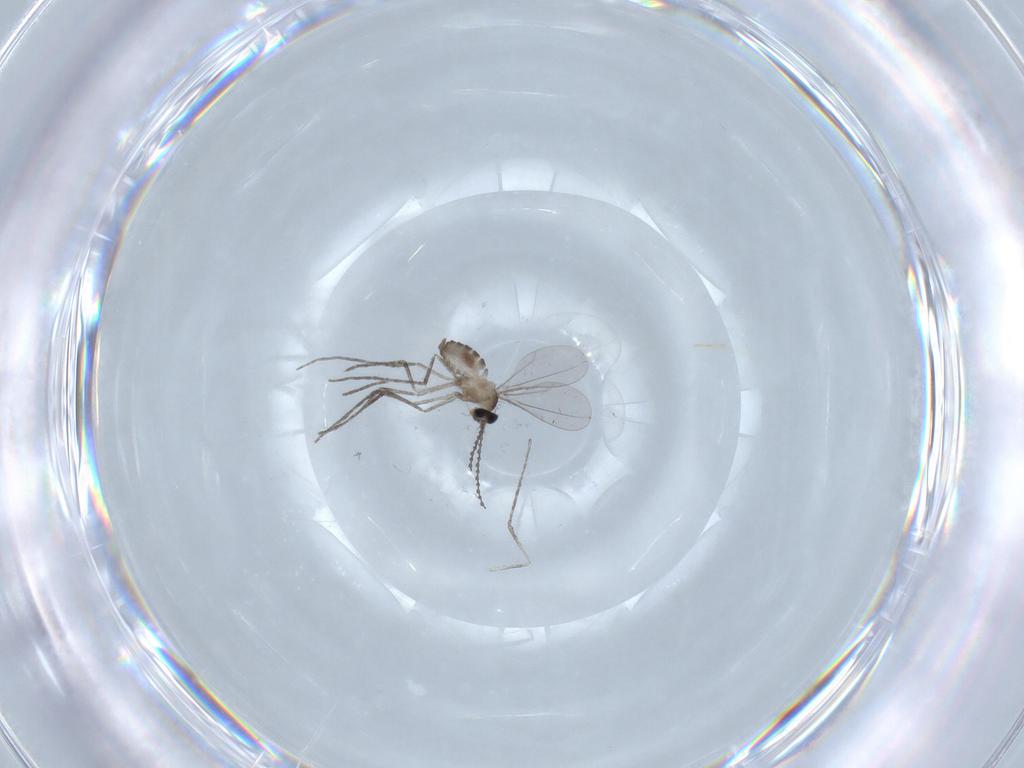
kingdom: Animalia
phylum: Arthropoda
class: Insecta
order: Diptera
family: Cecidomyiidae
